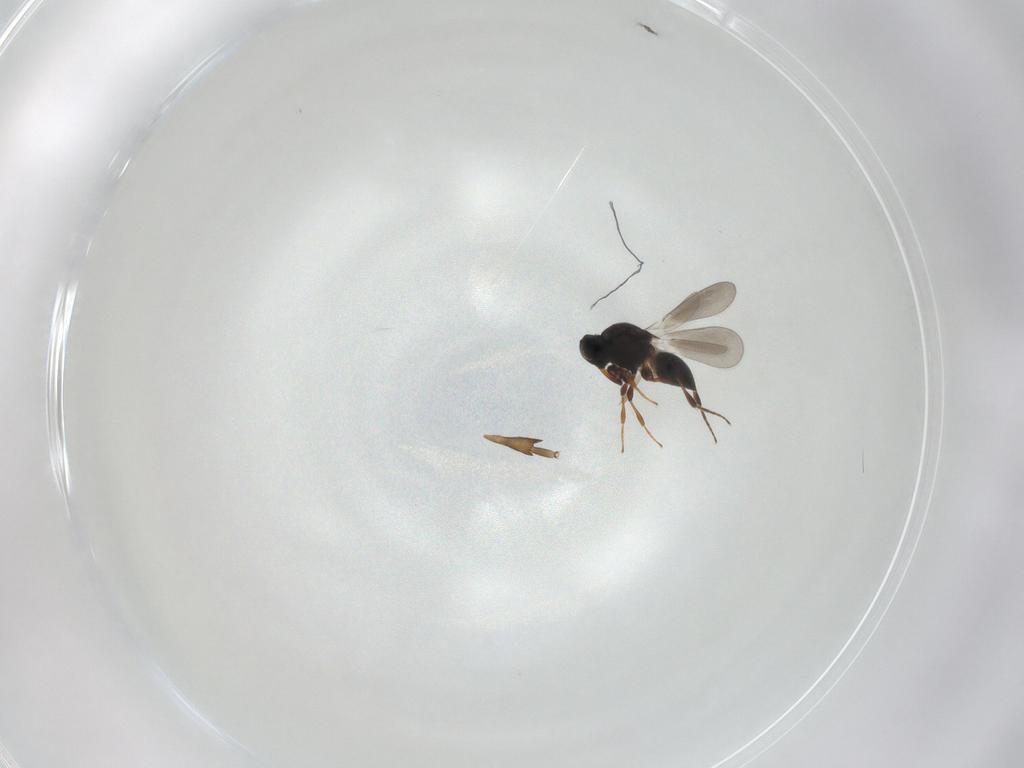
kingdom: Animalia
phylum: Arthropoda
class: Insecta
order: Hymenoptera
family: Platygastridae
